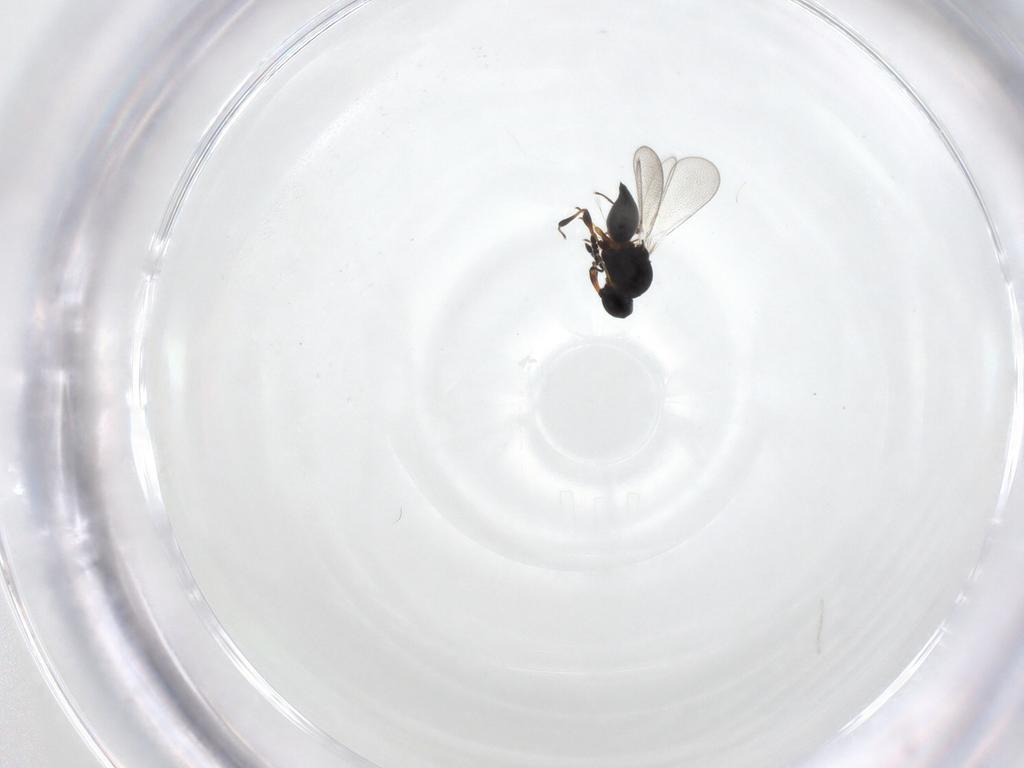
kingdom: Animalia
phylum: Arthropoda
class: Insecta
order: Hymenoptera
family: Platygastridae
